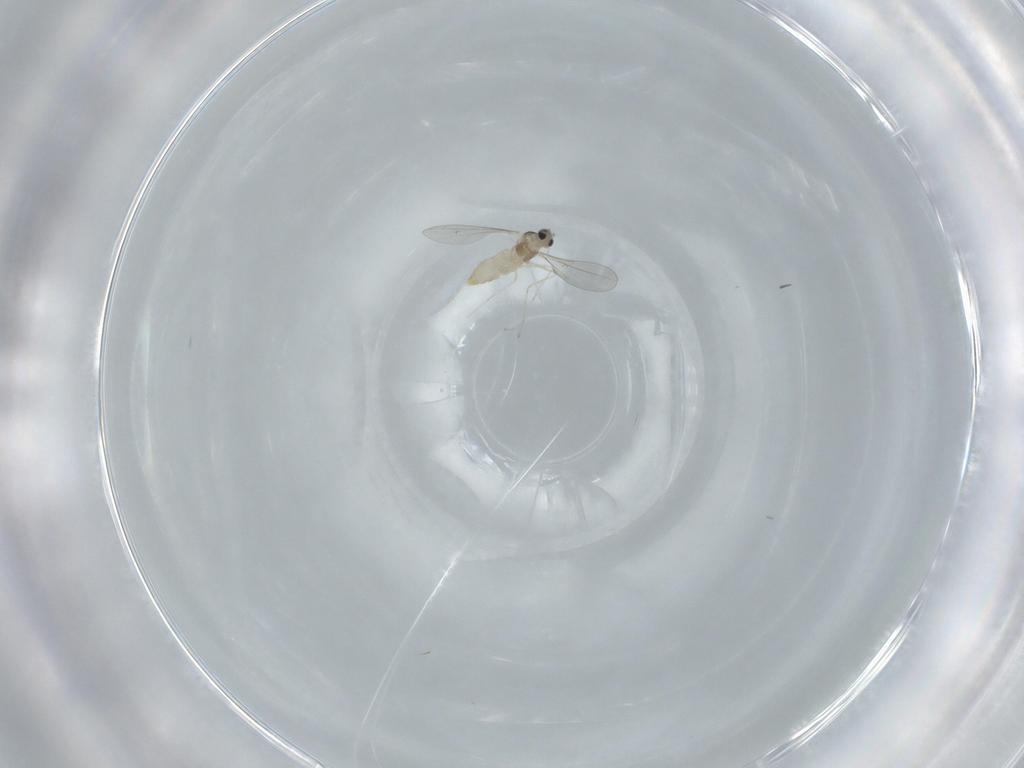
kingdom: Animalia
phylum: Arthropoda
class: Insecta
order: Diptera
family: Cecidomyiidae
